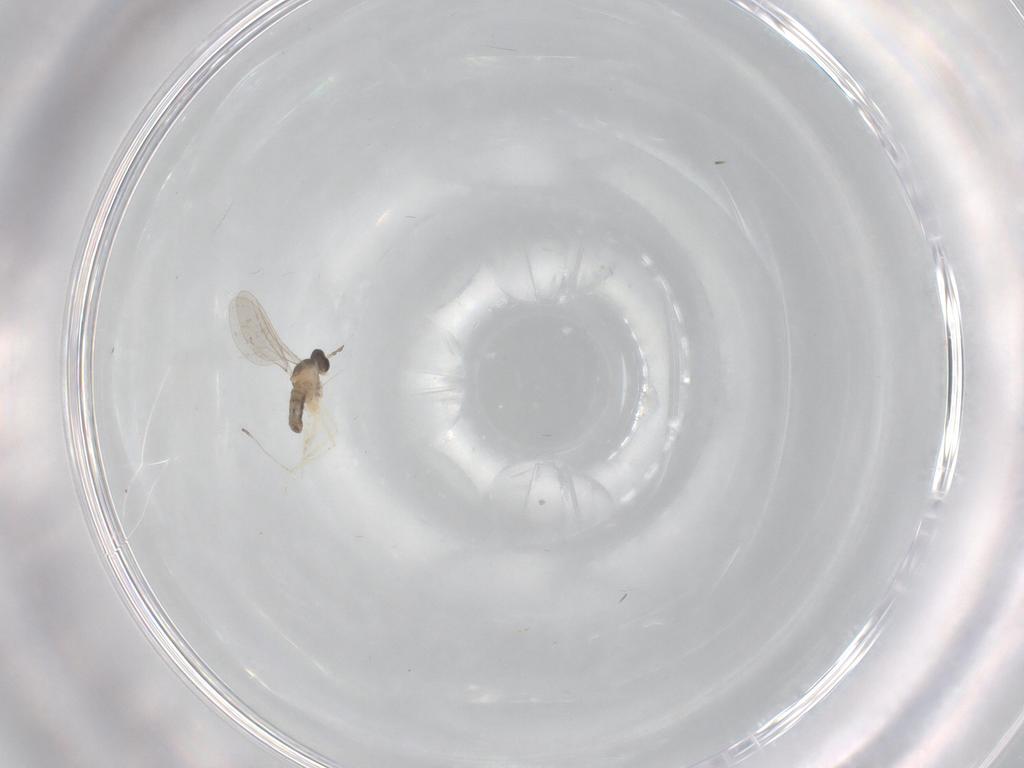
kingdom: Animalia
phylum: Arthropoda
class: Insecta
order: Diptera
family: Cecidomyiidae
